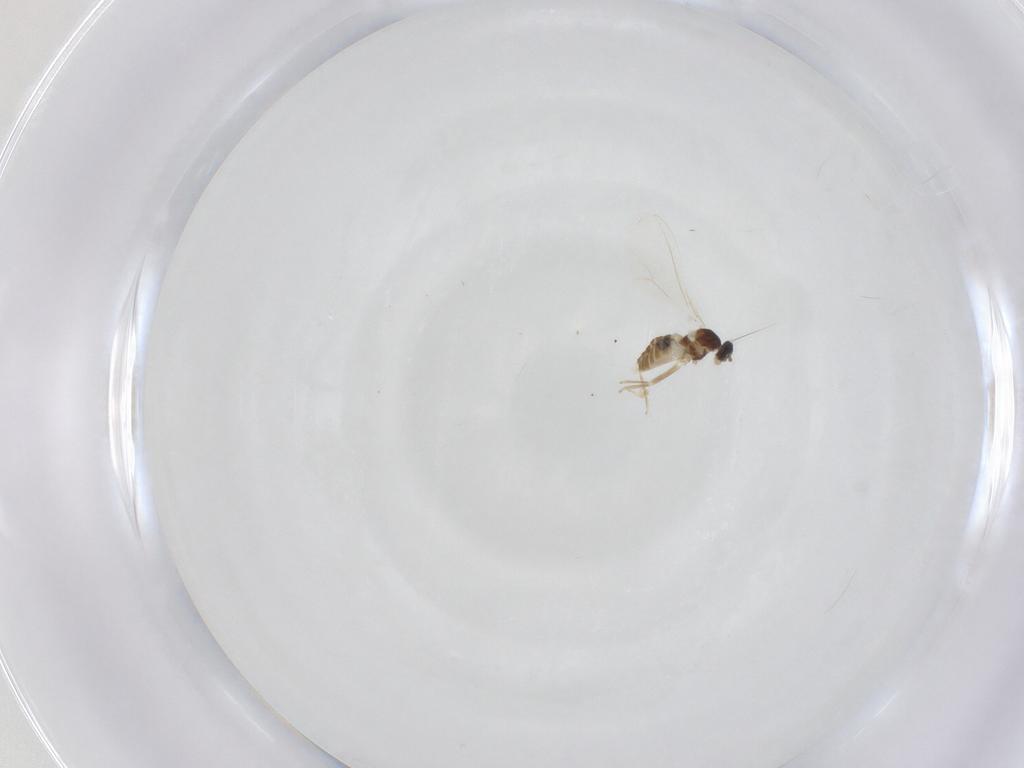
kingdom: Animalia
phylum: Arthropoda
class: Insecta
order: Diptera
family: Cecidomyiidae
